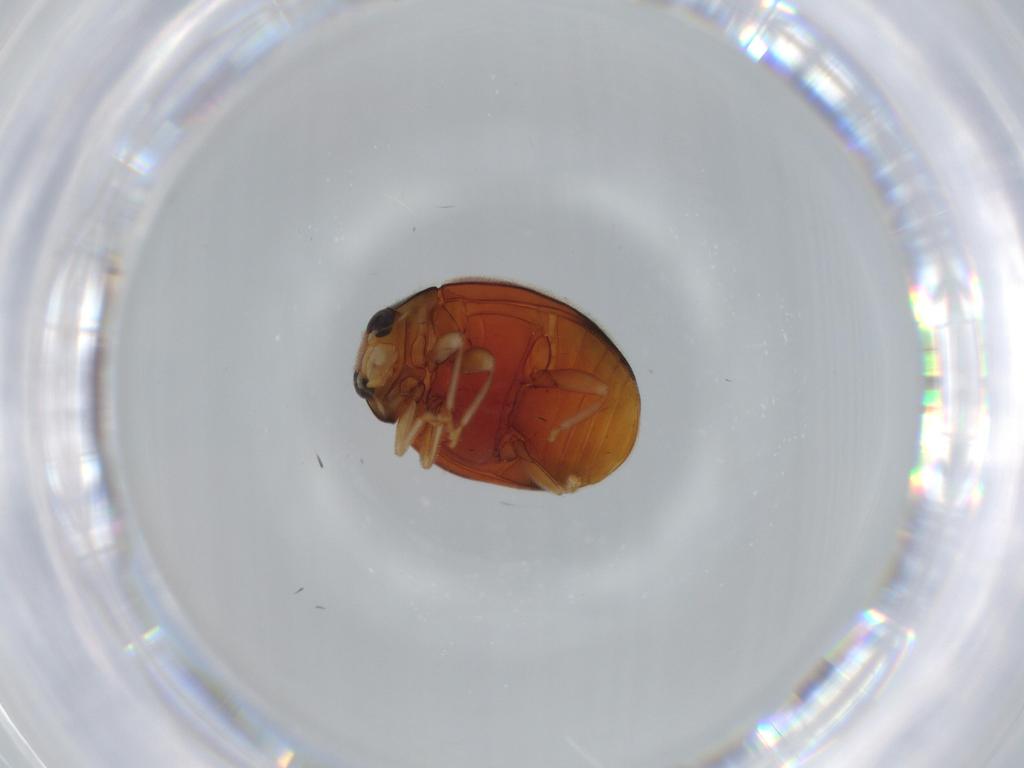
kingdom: Animalia
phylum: Arthropoda
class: Insecta
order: Coleoptera
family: Coccinellidae
